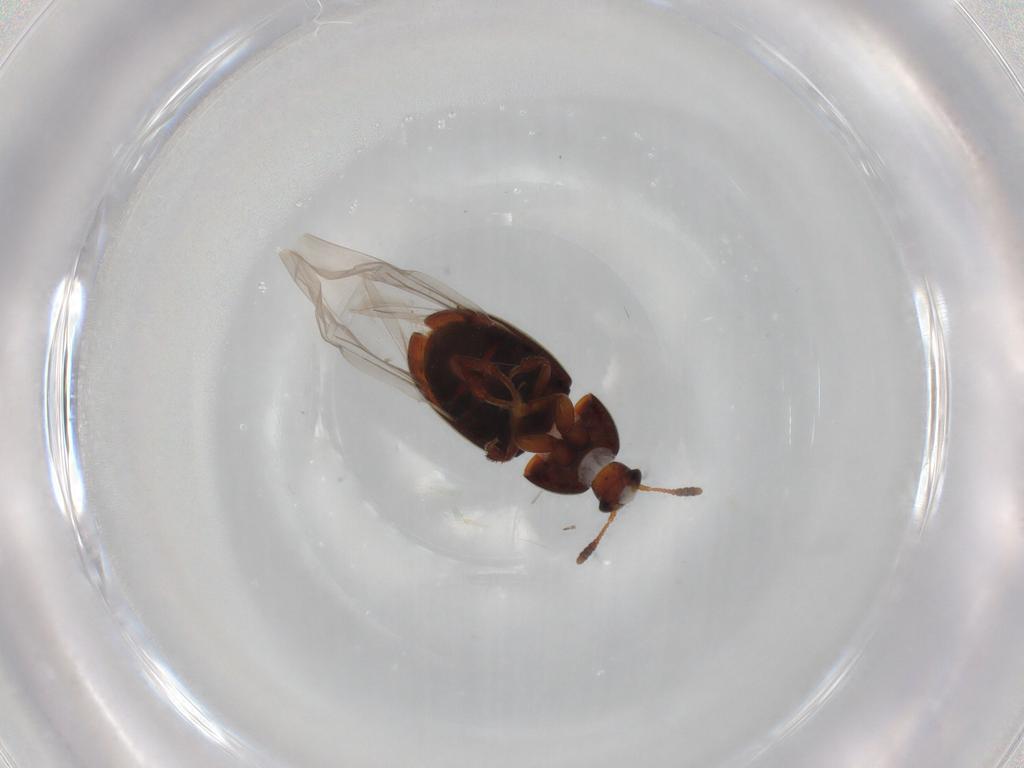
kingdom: Animalia
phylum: Arthropoda
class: Insecta
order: Coleoptera
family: Leiodidae
